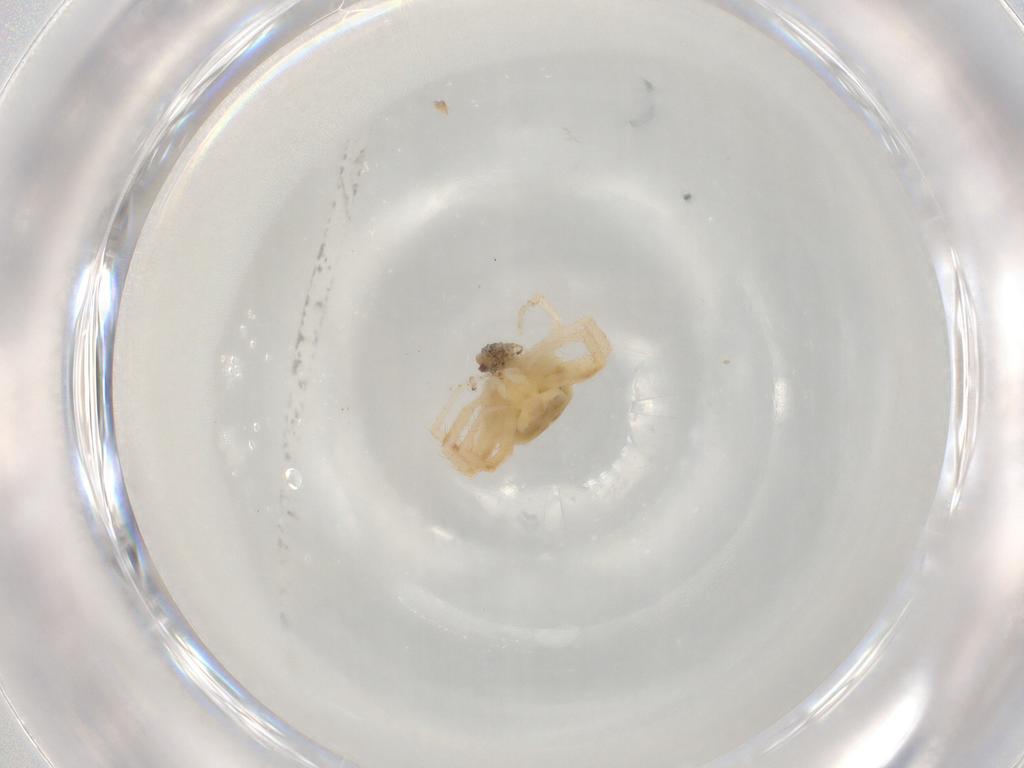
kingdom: Animalia
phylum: Arthropoda
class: Arachnida
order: Trombidiformes
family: Anystidae
